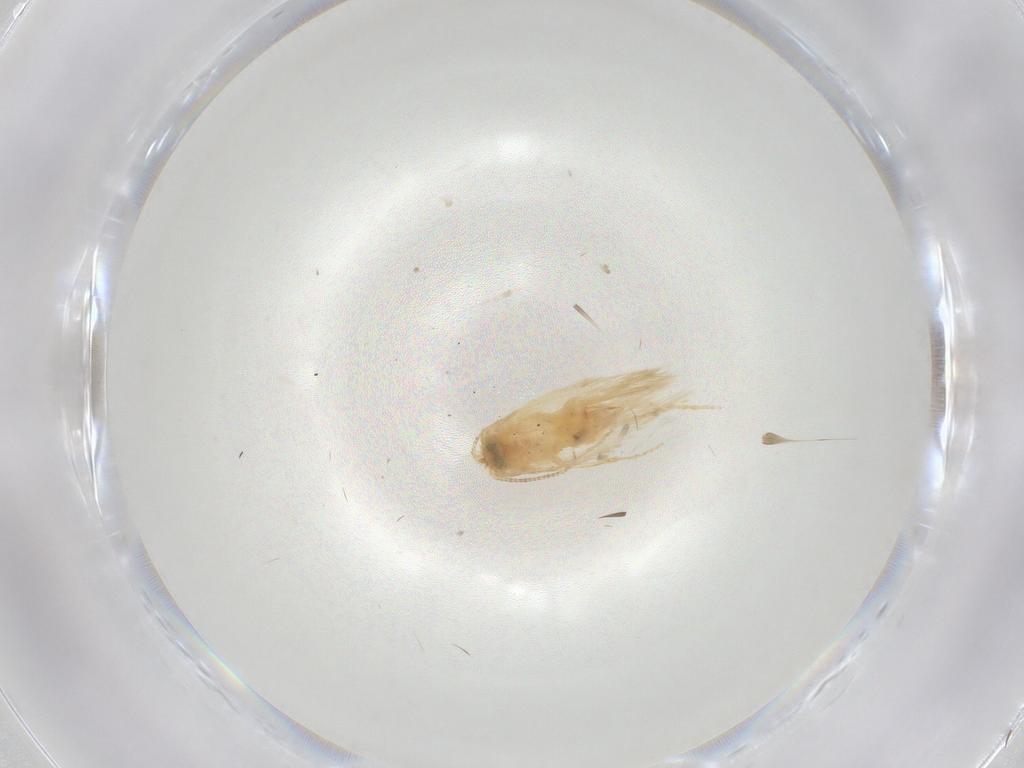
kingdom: Animalia
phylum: Arthropoda
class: Insecta
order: Lepidoptera
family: Nepticulidae
